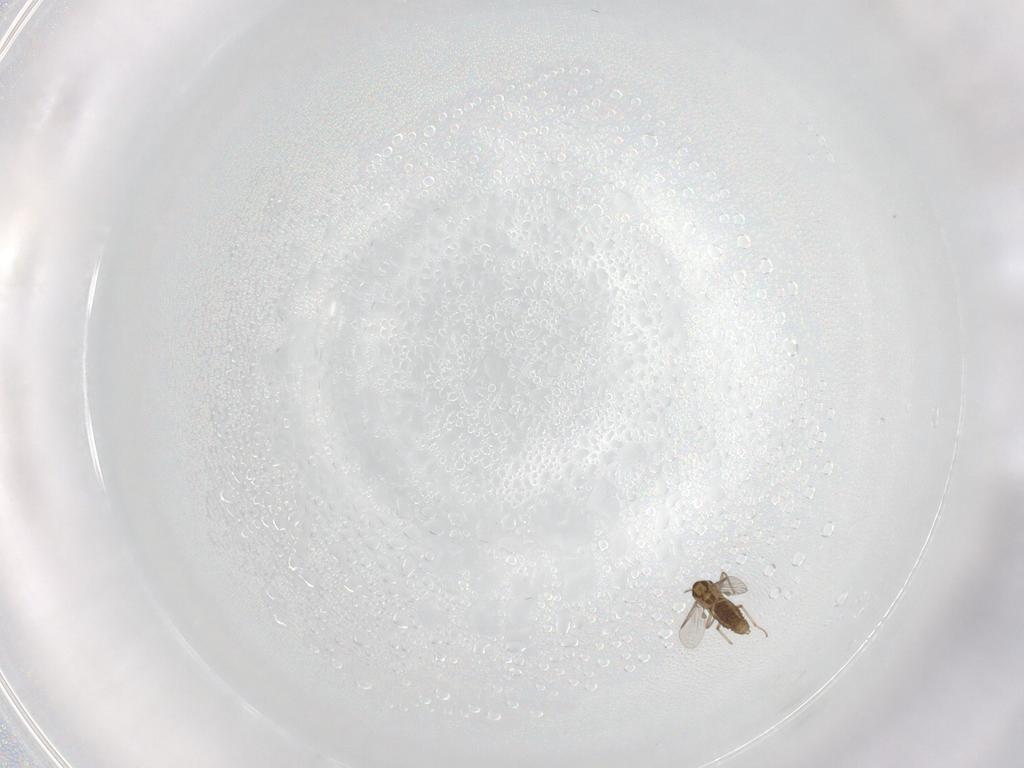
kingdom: Animalia
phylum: Arthropoda
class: Insecta
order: Diptera
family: Chironomidae
